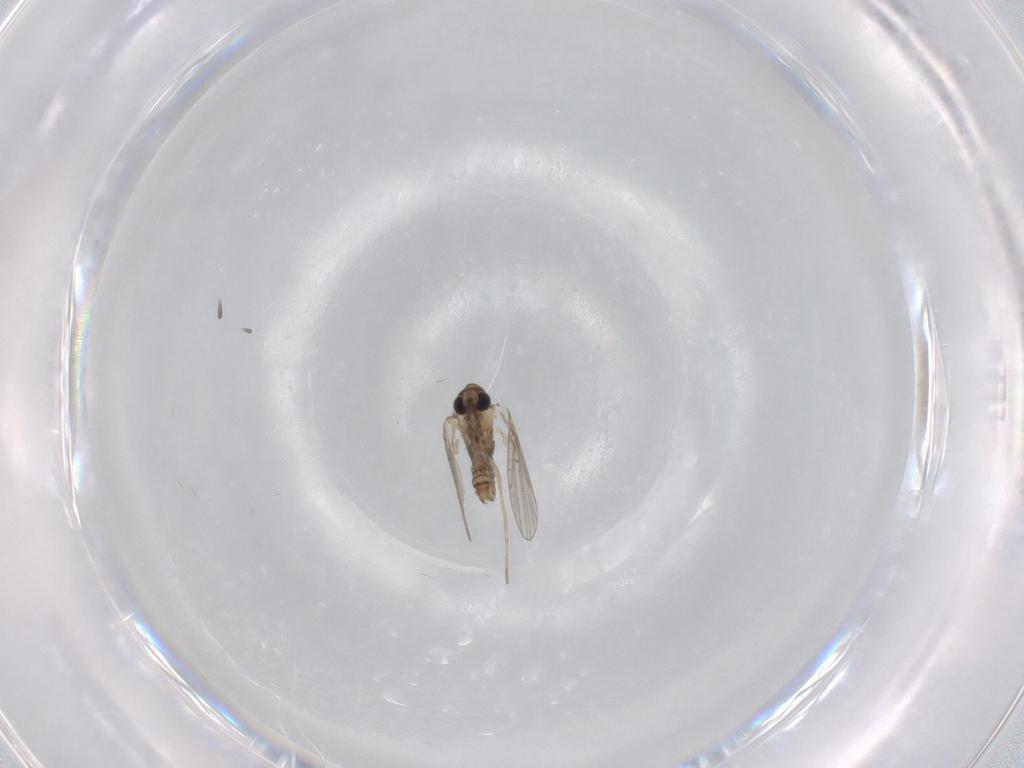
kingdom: Animalia
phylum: Arthropoda
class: Insecta
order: Diptera
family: Psychodidae
